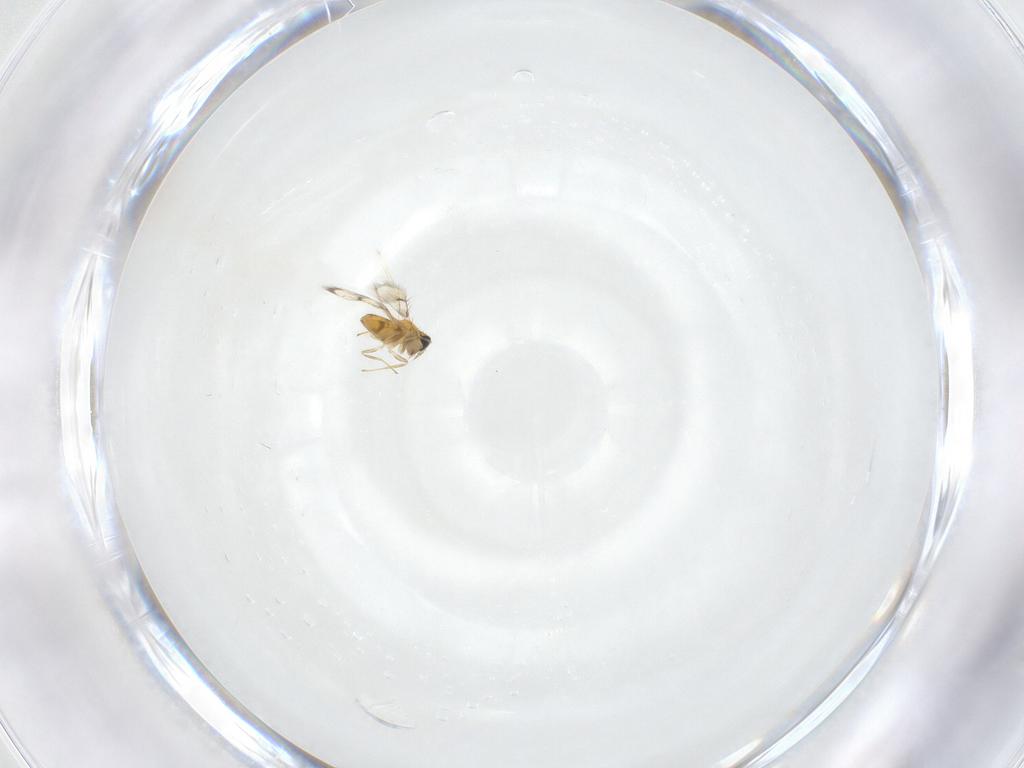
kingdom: Animalia
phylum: Arthropoda
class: Insecta
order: Hymenoptera
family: Trichogrammatidae
